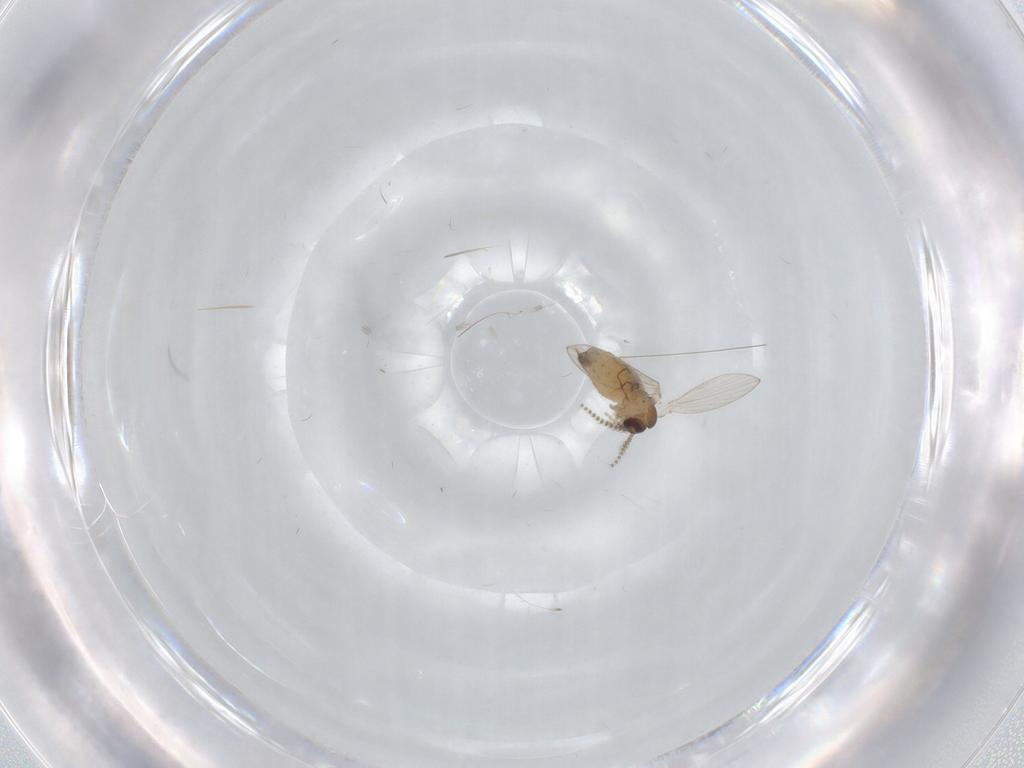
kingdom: Animalia
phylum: Arthropoda
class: Insecta
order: Diptera
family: Psychodidae
